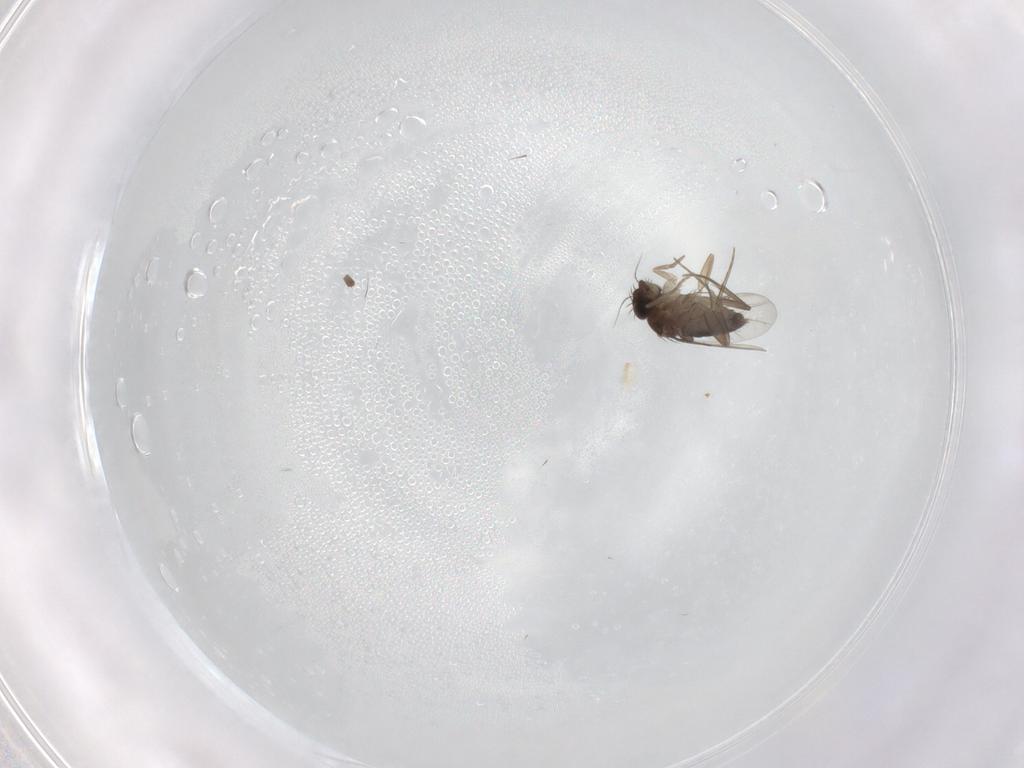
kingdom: Animalia
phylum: Arthropoda
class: Insecta
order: Diptera
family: Phoridae
